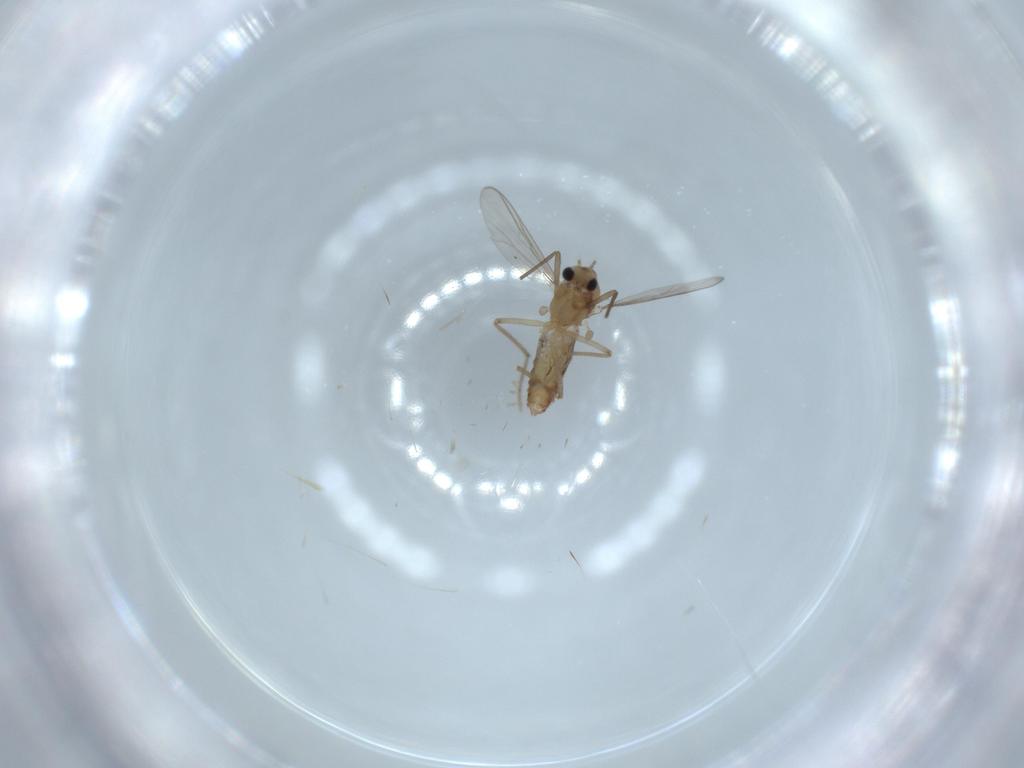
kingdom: Animalia
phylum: Arthropoda
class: Insecta
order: Diptera
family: Chironomidae
